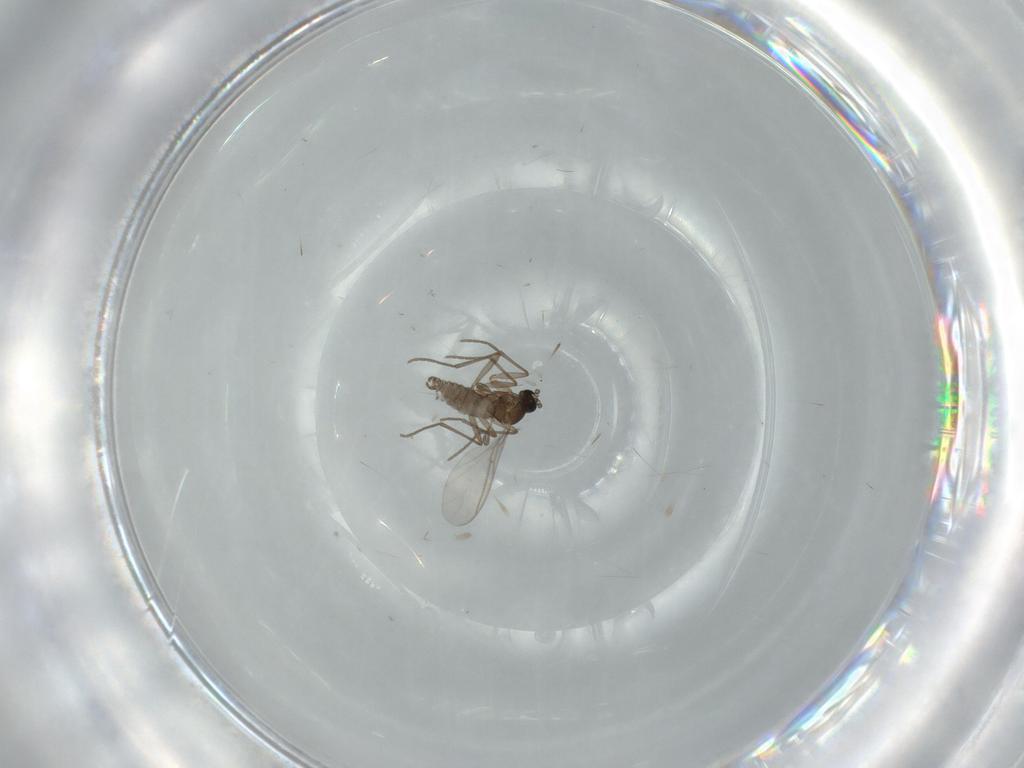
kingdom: Animalia
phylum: Arthropoda
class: Insecta
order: Diptera
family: Sciaridae
